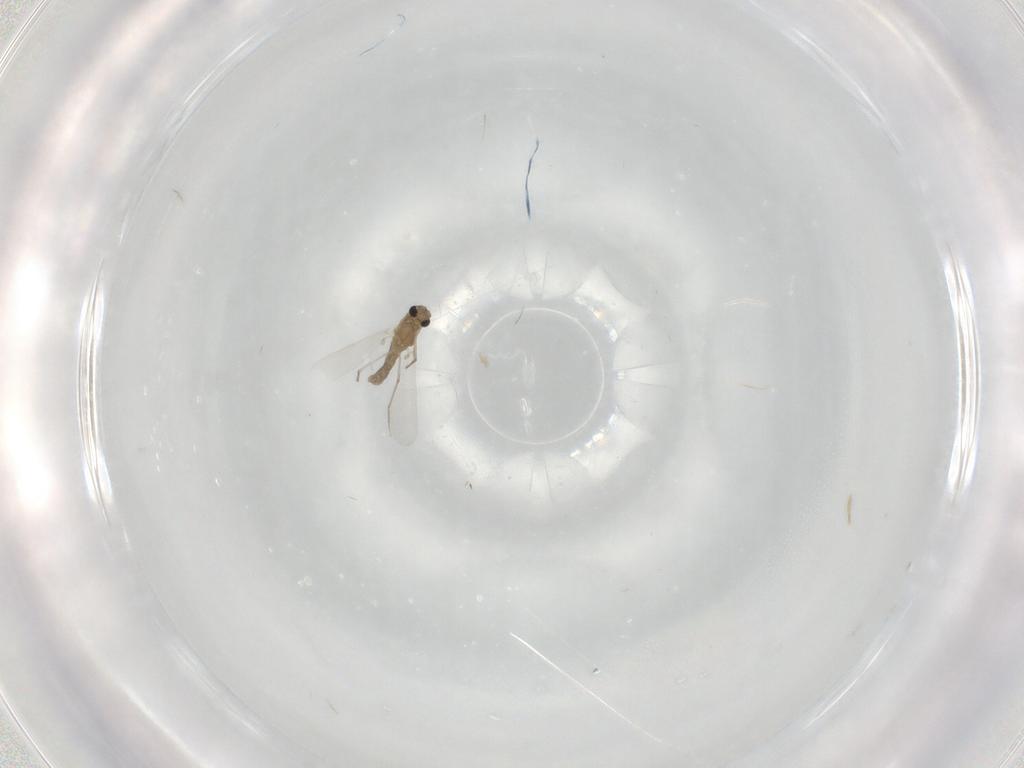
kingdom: Animalia
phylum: Arthropoda
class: Insecta
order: Diptera
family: Chironomidae
